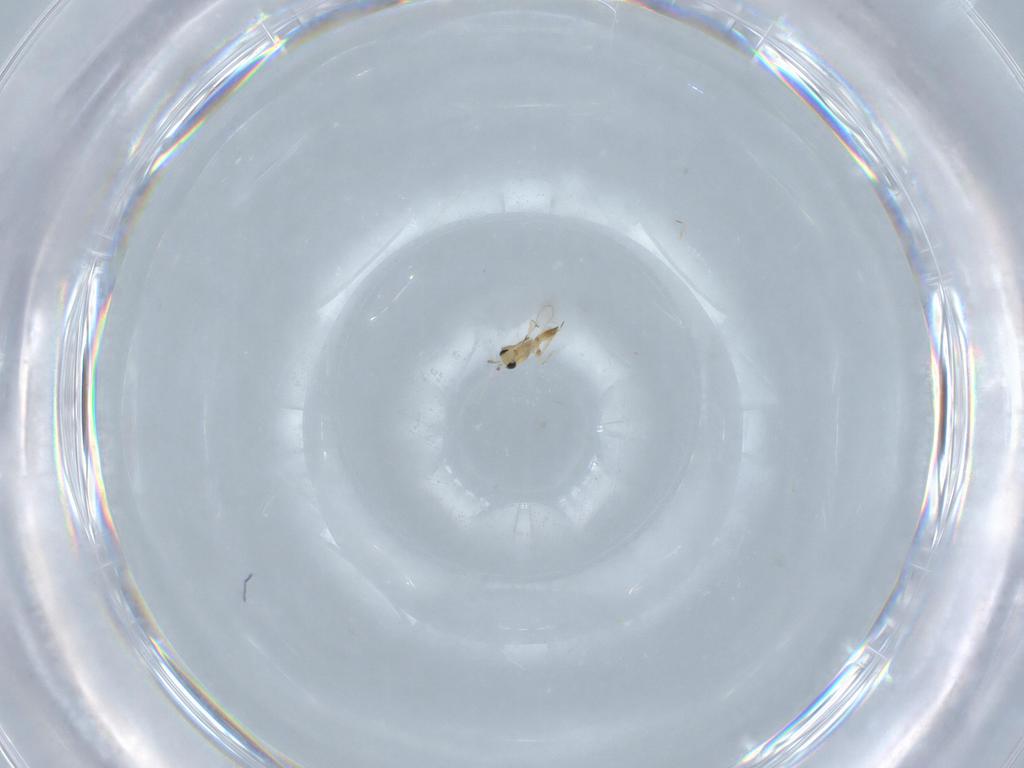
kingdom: Animalia
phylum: Arthropoda
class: Insecta
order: Hymenoptera
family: Trichogrammatidae
